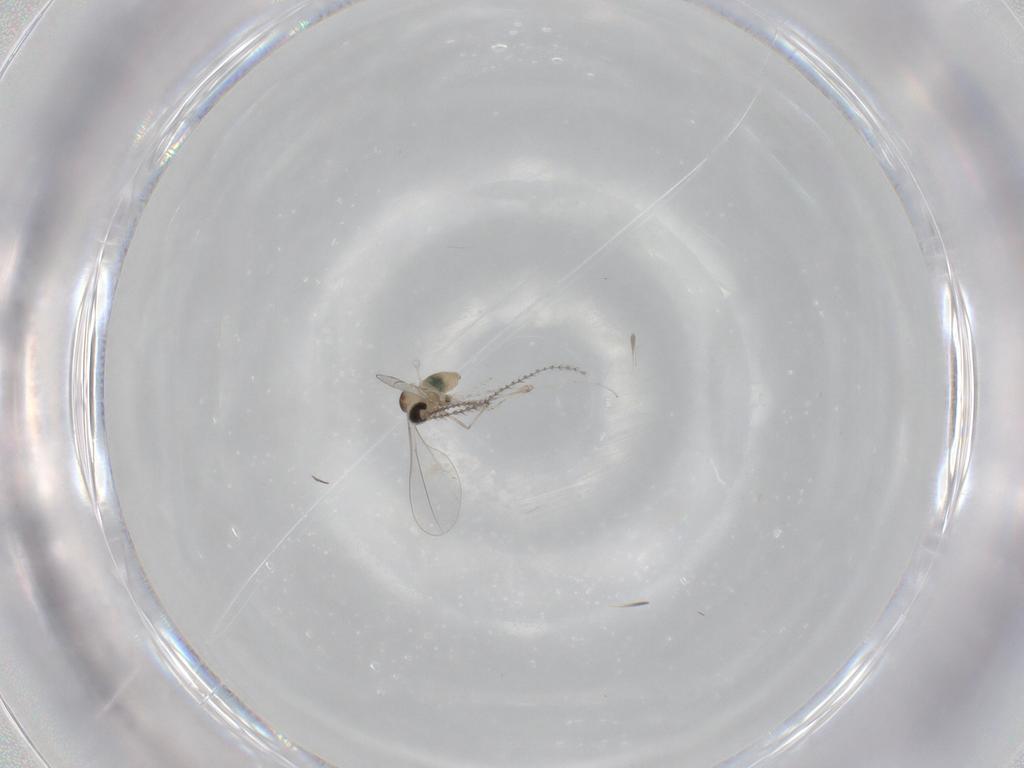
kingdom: Animalia
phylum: Arthropoda
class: Insecta
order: Diptera
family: Cecidomyiidae
